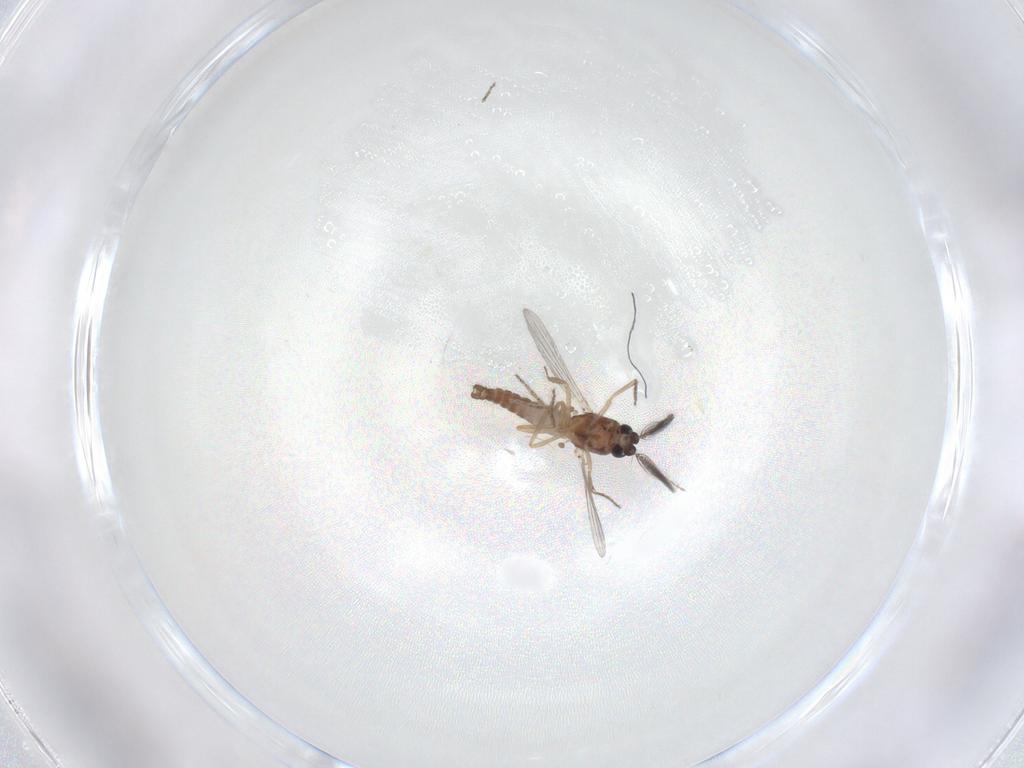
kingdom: Animalia
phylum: Arthropoda
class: Insecta
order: Diptera
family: Ceratopogonidae
